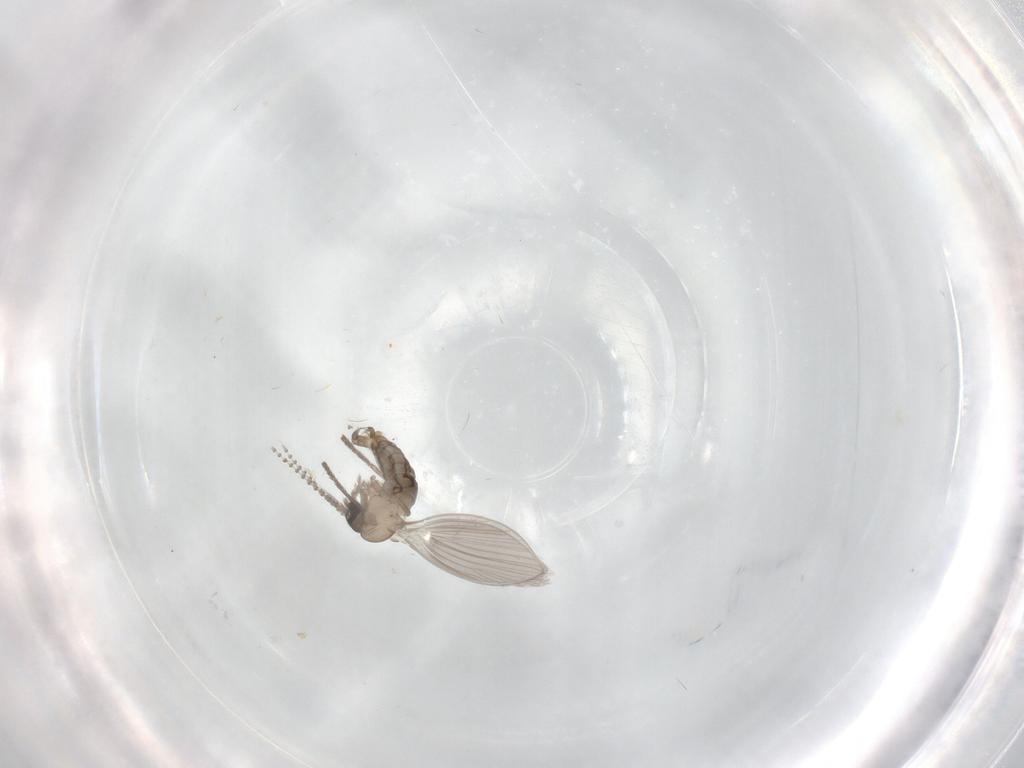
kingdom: Animalia
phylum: Arthropoda
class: Insecta
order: Diptera
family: Psychodidae
